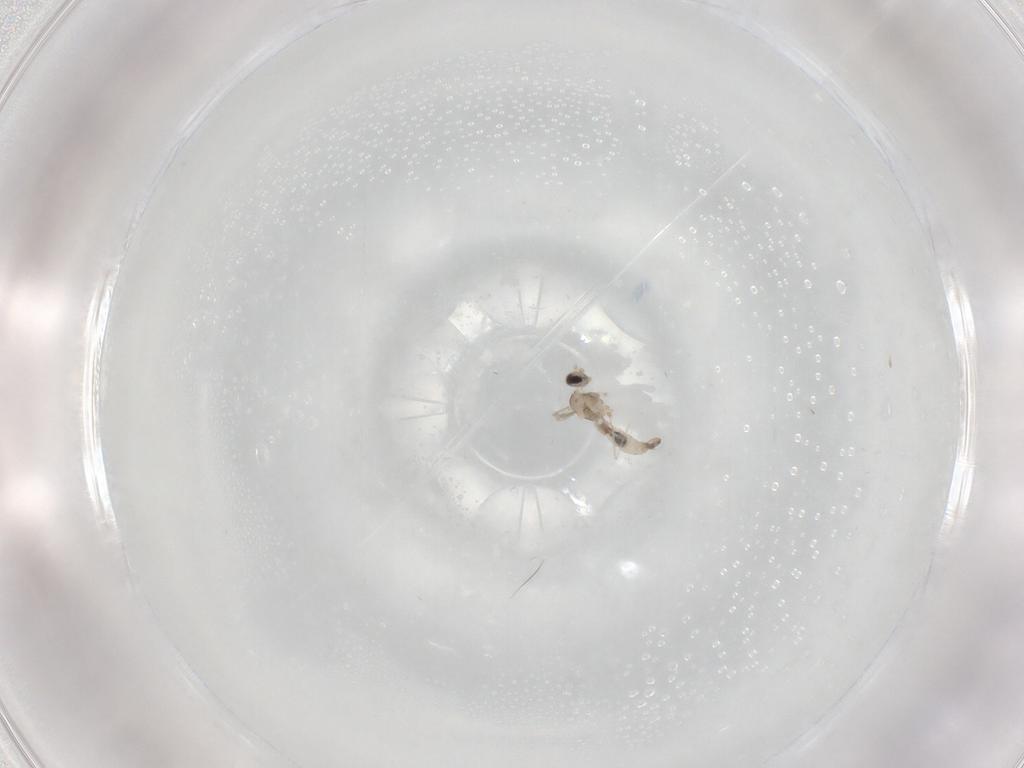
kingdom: Animalia
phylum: Arthropoda
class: Insecta
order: Diptera
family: Cecidomyiidae
